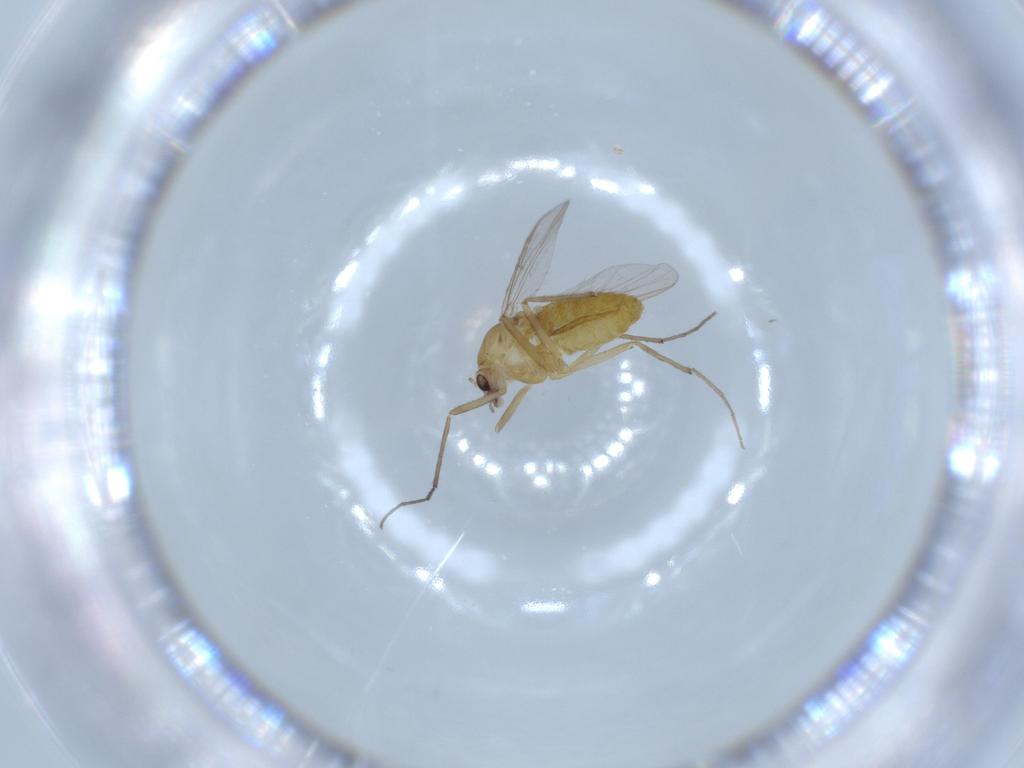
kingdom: Animalia
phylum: Arthropoda
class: Insecta
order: Diptera
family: Chironomidae
